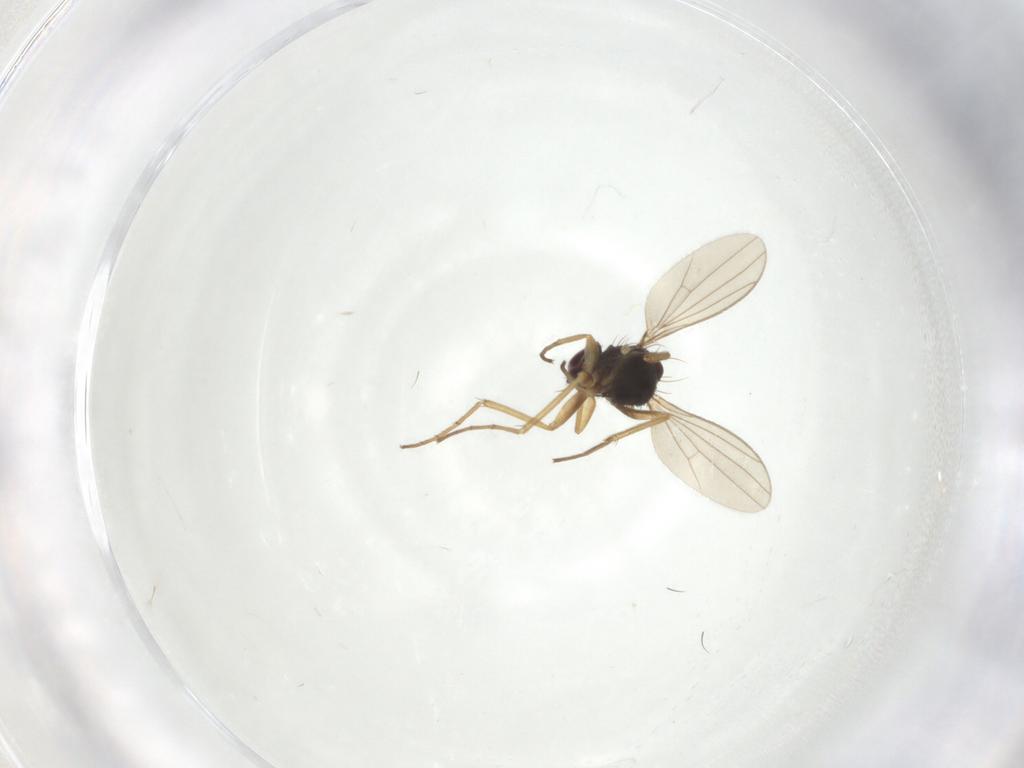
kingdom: Animalia
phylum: Arthropoda
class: Insecta
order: Diptera
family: Dolichopodidae
